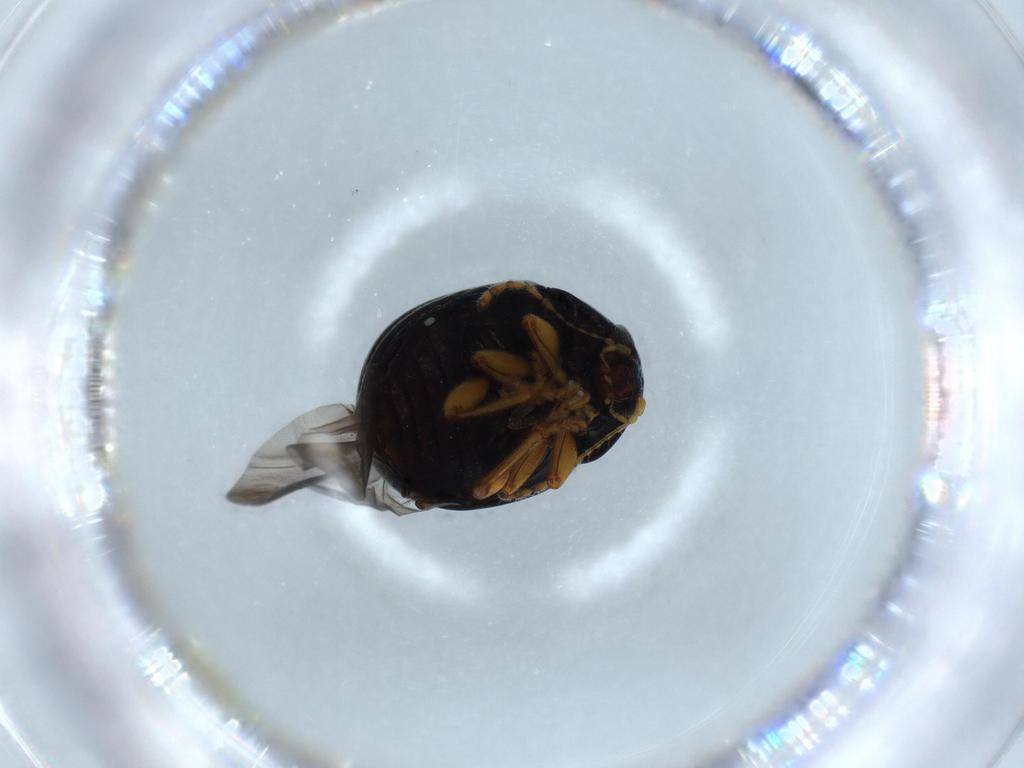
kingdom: Animalia
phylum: Arthropoda
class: Insecta
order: Coleoptera
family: Chrysomelidae
